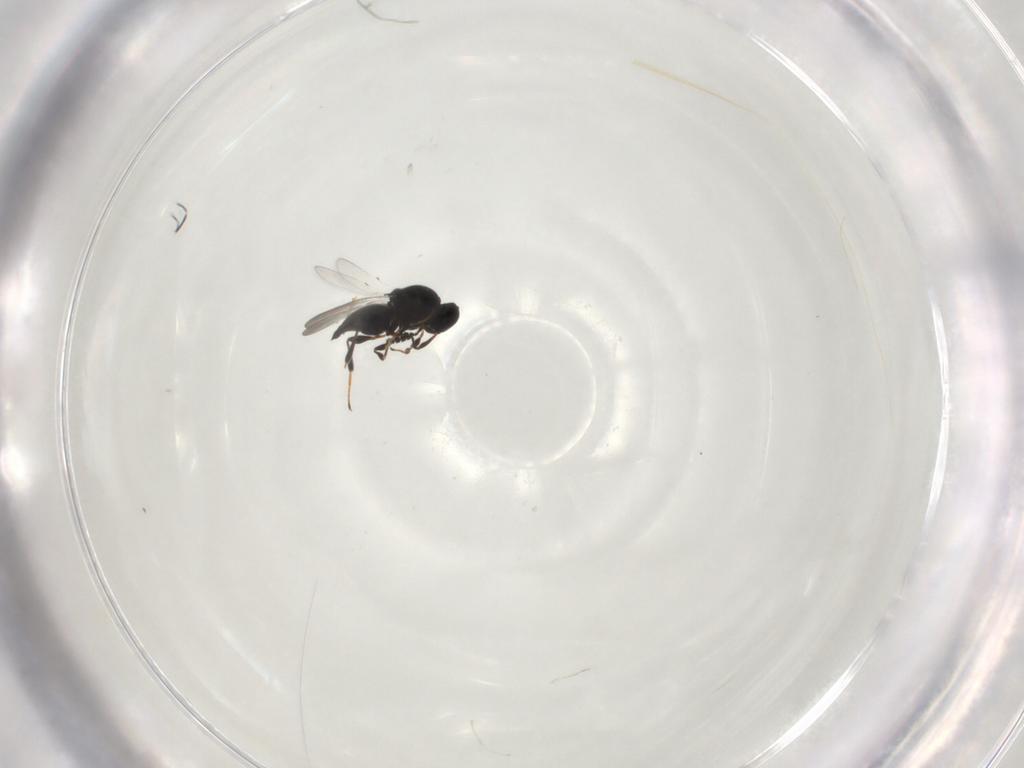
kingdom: Animalia
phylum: Arthropoda
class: Insecta
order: Hymenoptera
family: Platygastridae
